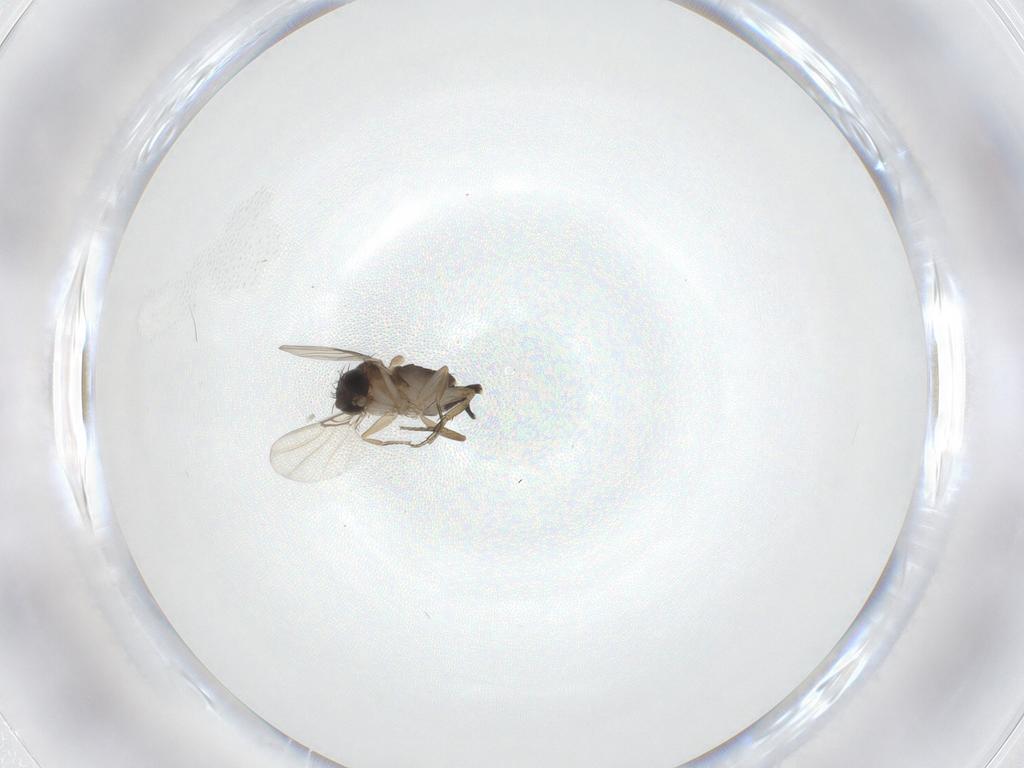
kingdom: Animalia
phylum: Arthropoda
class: Insecta
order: Diptera
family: Phoridae
